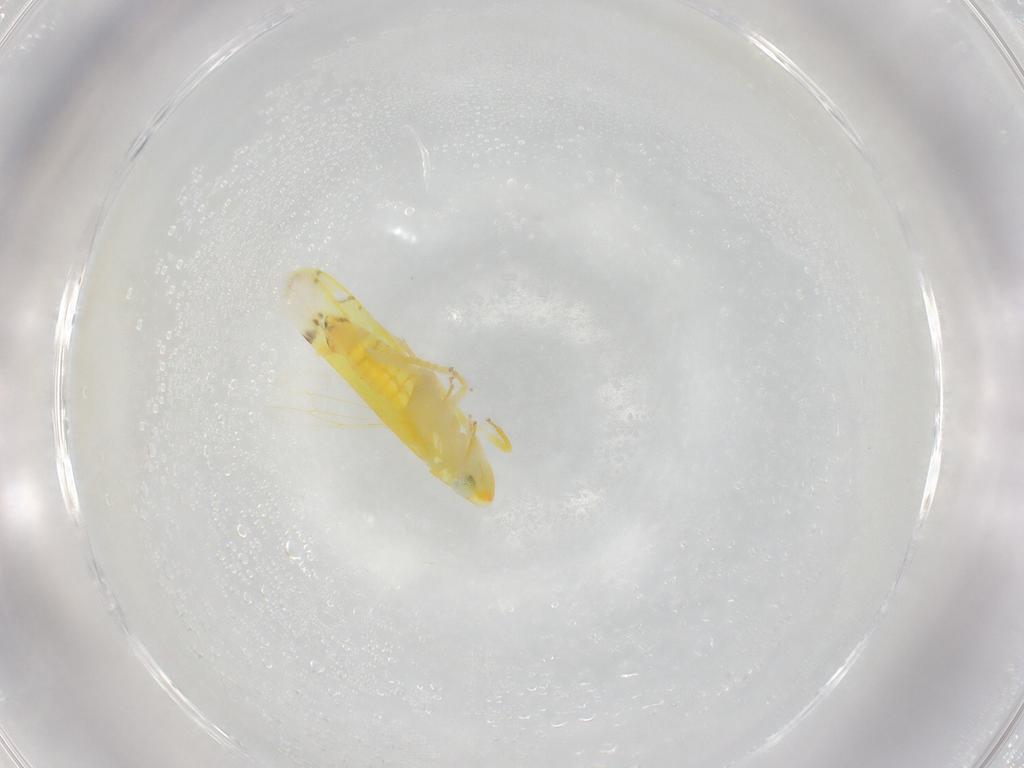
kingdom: Animalia
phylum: Arthropoda
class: Insecta
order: Hemiptera
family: Cicadellidae
